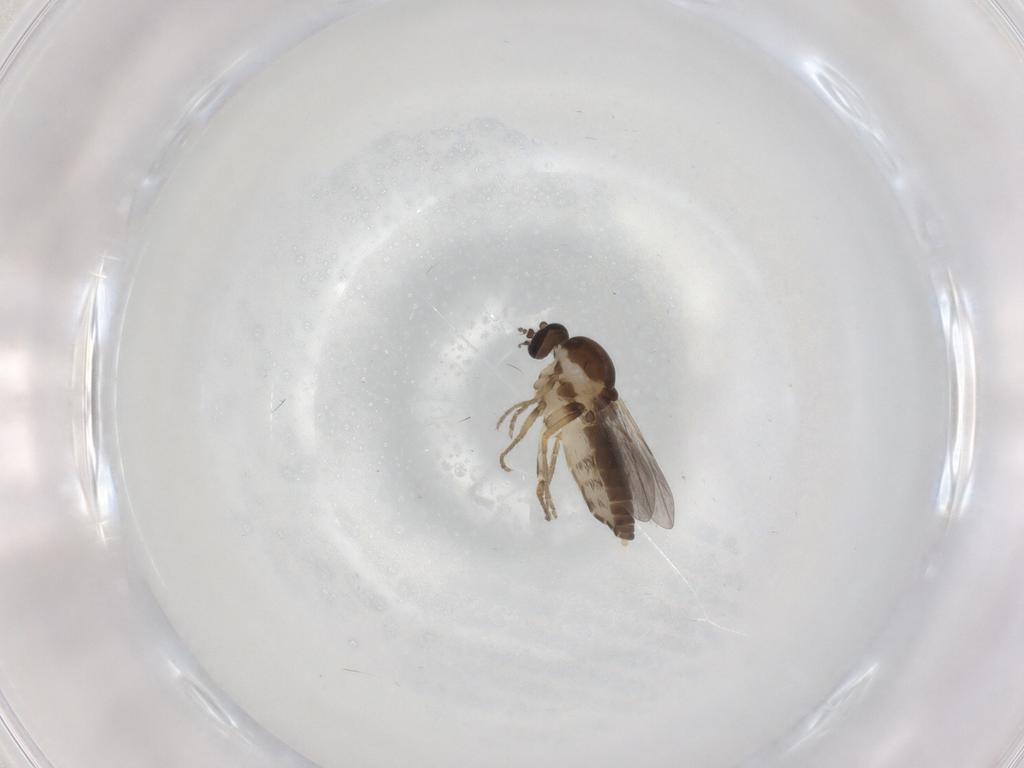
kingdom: Animalia
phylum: Arthropoda
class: Insecta
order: Diptera
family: Ceratopogonidae
